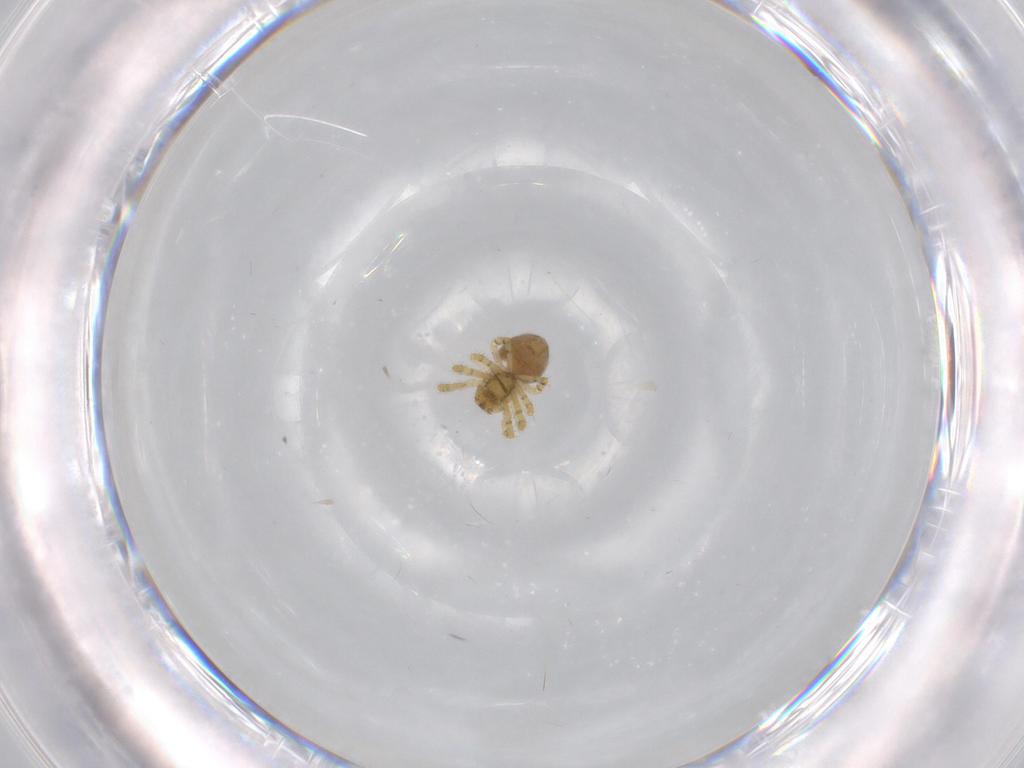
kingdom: Animalia
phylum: Arthropoda
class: Arachnida
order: Araneae
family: Theridiidae
